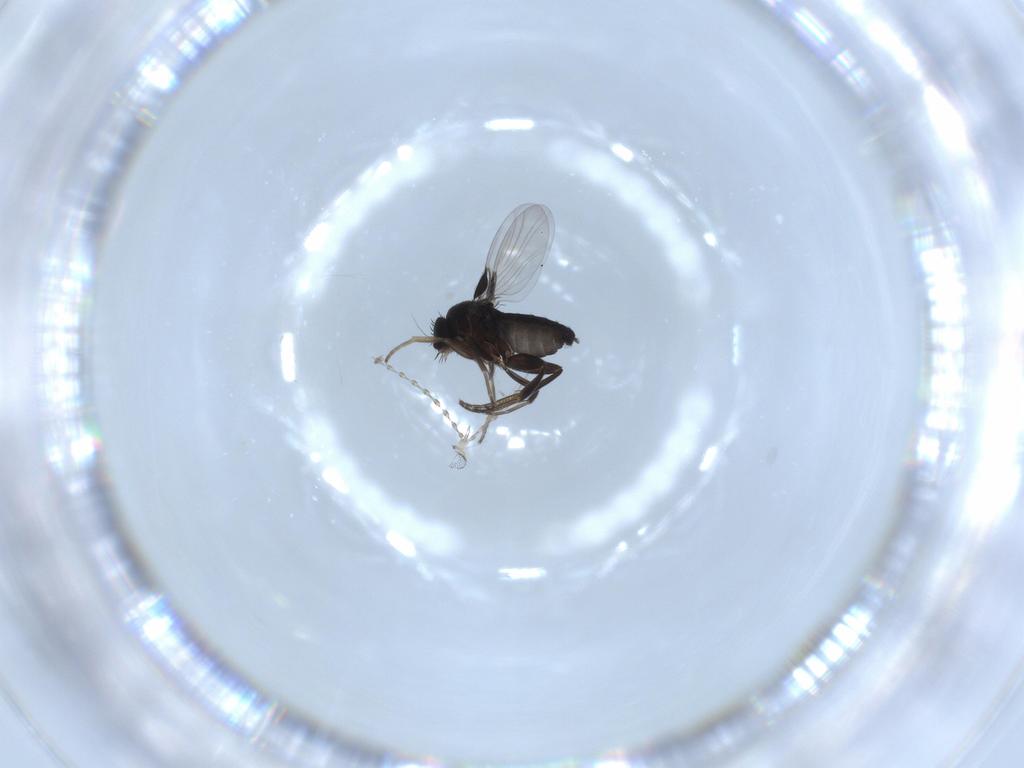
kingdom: Animalia
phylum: Arthropoda
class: Insecta
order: Diptera
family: Cecidomyiidae
